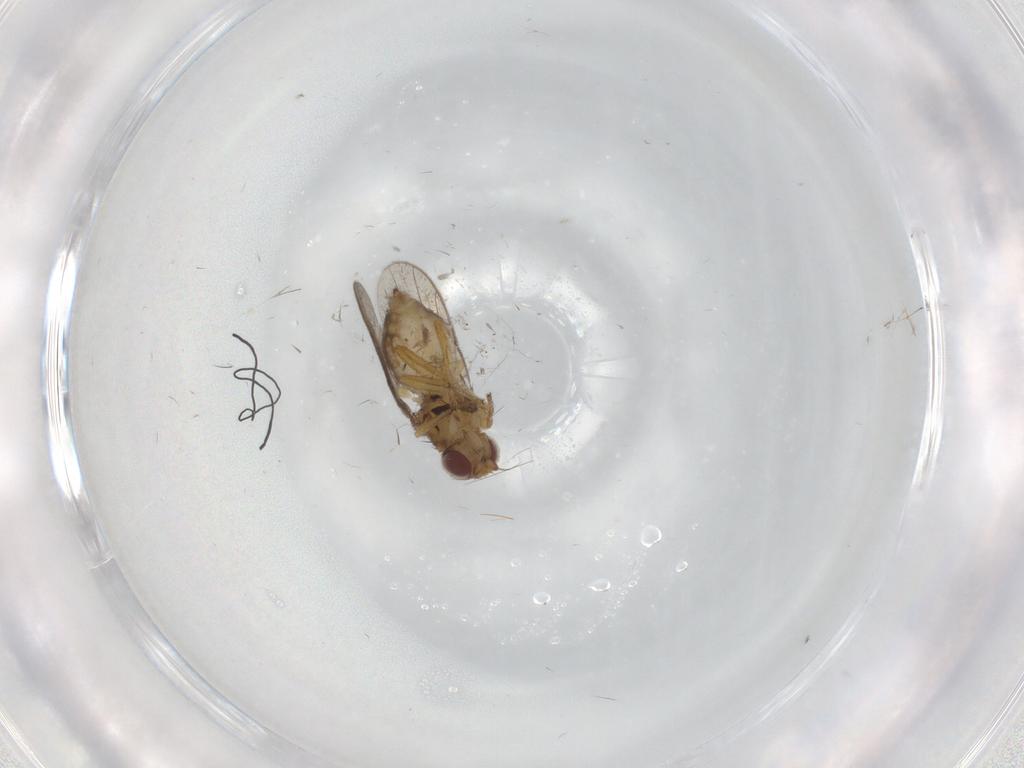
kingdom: Animalia
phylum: Arthropoda
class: Insecta
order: Diptera
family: Chloropidae
